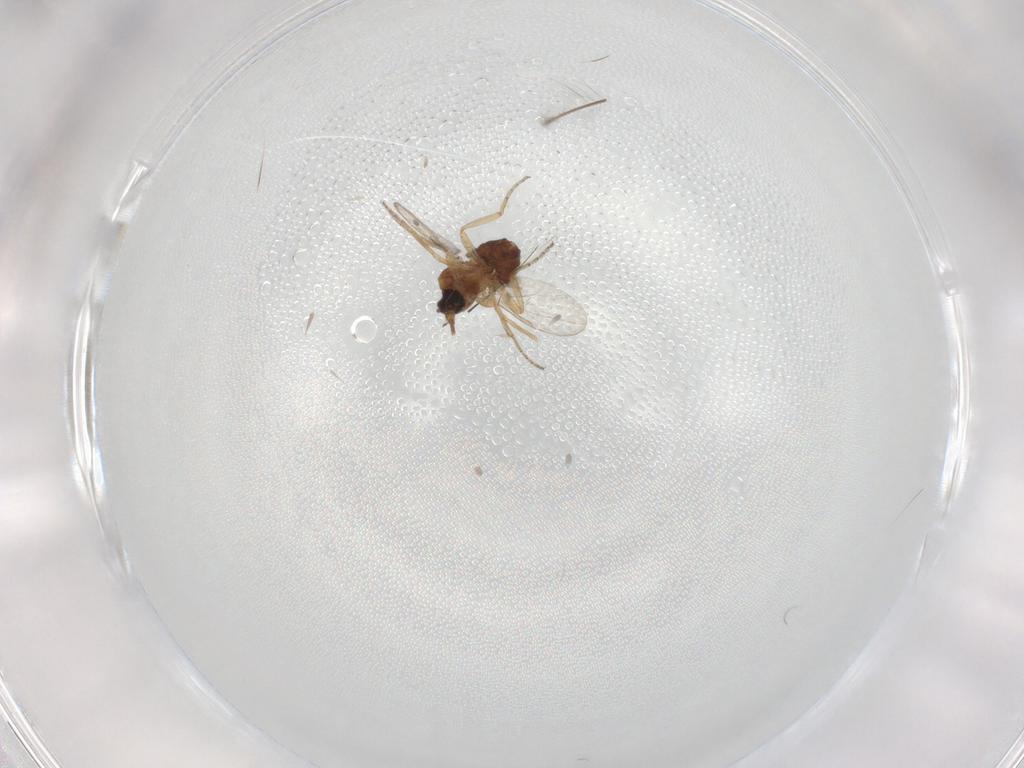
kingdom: Animalia
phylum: Arthropoda
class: Insecta
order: Diptera
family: Ceratopogonidae
